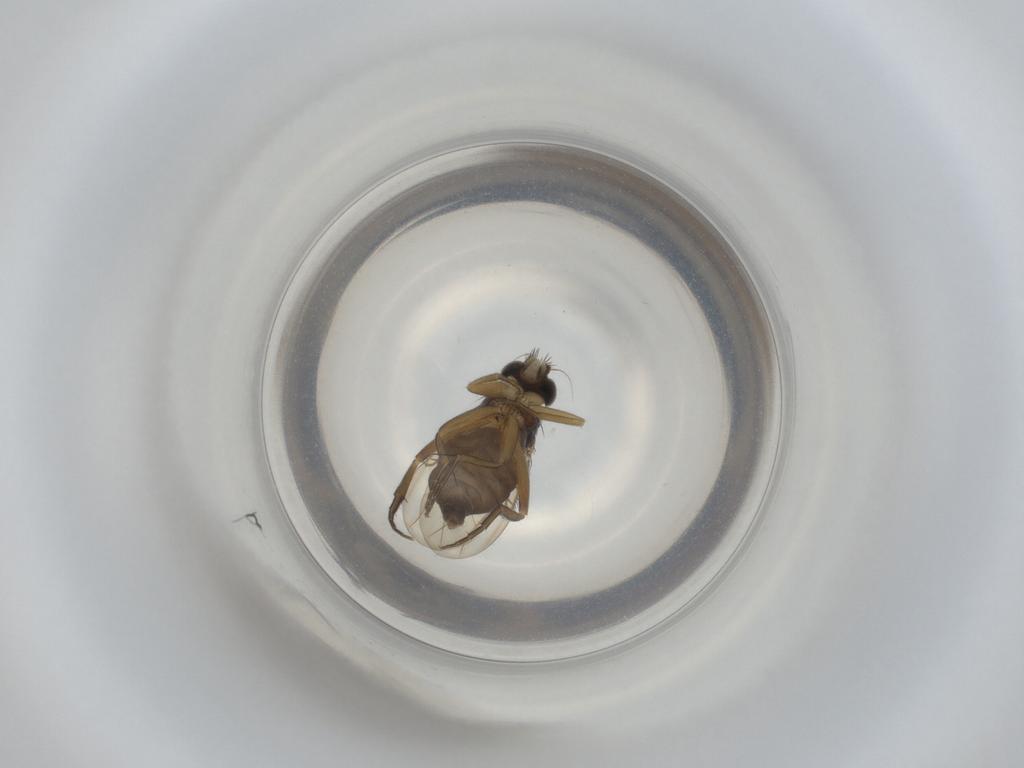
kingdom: Animalia
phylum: Arthropoda
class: Insecta
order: Diptera
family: Phoridae
